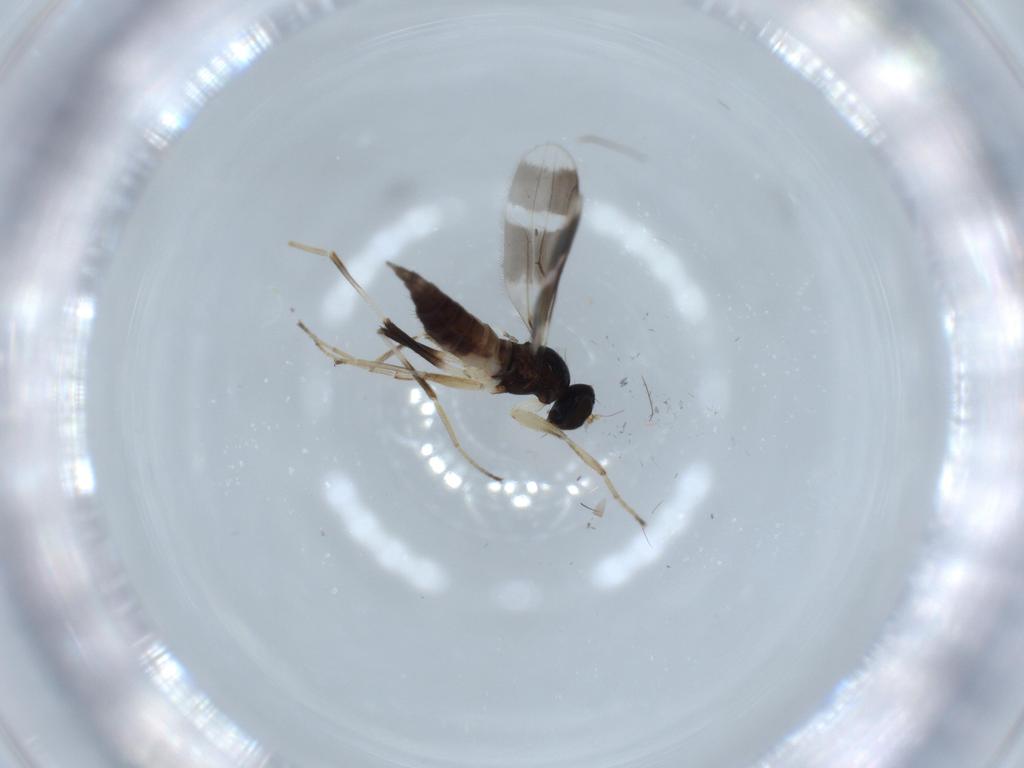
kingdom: Animalia
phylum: Arthropoda
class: Insecta
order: Diptera
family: Hybotidae
